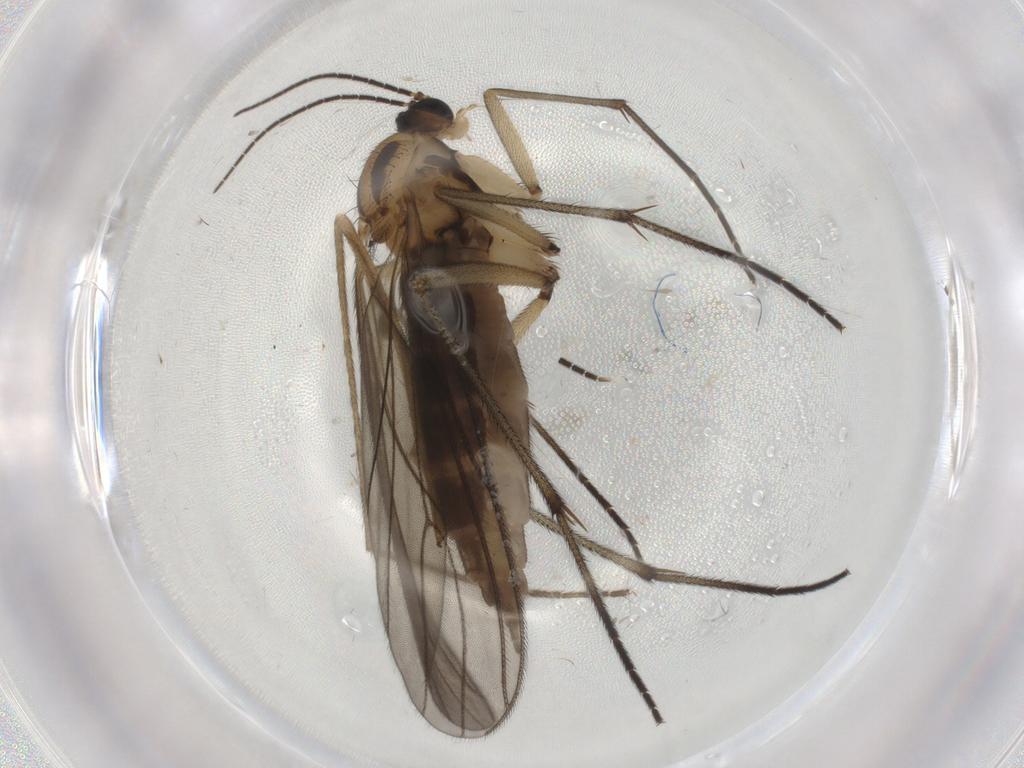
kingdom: Animalia
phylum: Arthropoda
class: Insecta
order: Diptera
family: Sciaridae
